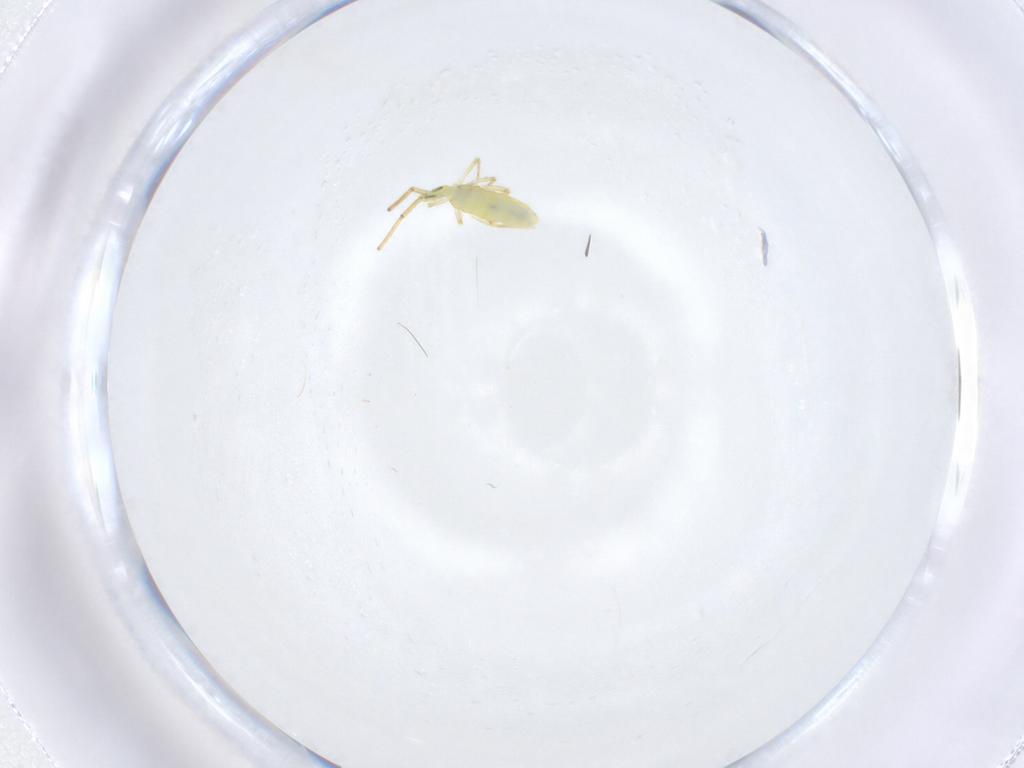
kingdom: Animalia
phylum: Arthropoda
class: Collembola
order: Entomobryomorpha
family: Entomobryidae
